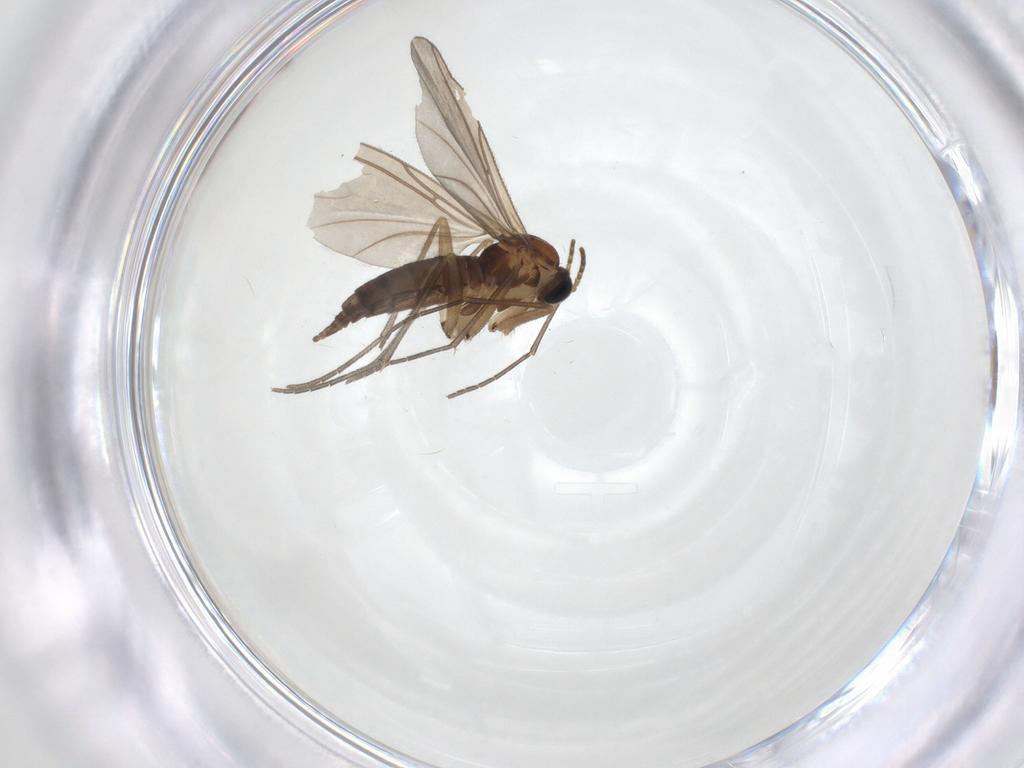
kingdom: Animalia
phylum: Arthropoda
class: Insecta
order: Diptera
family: Sciaridae
